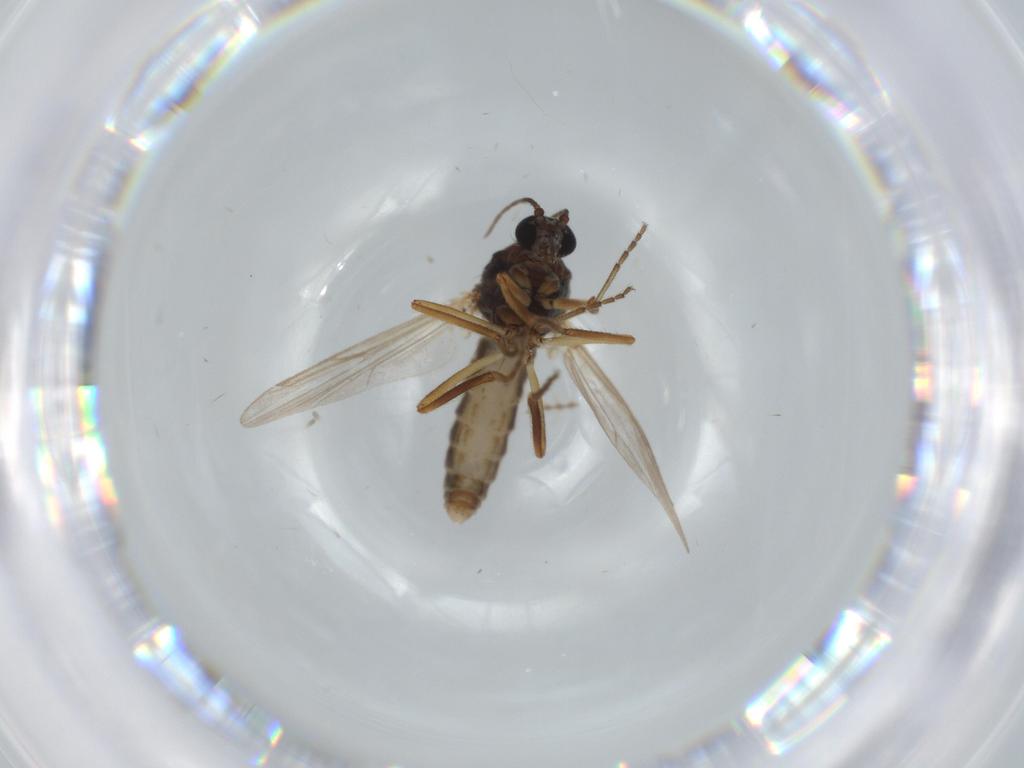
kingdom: Animalia
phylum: Arthropoda
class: Insecta
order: Diptera
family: Ceratopogonidae
